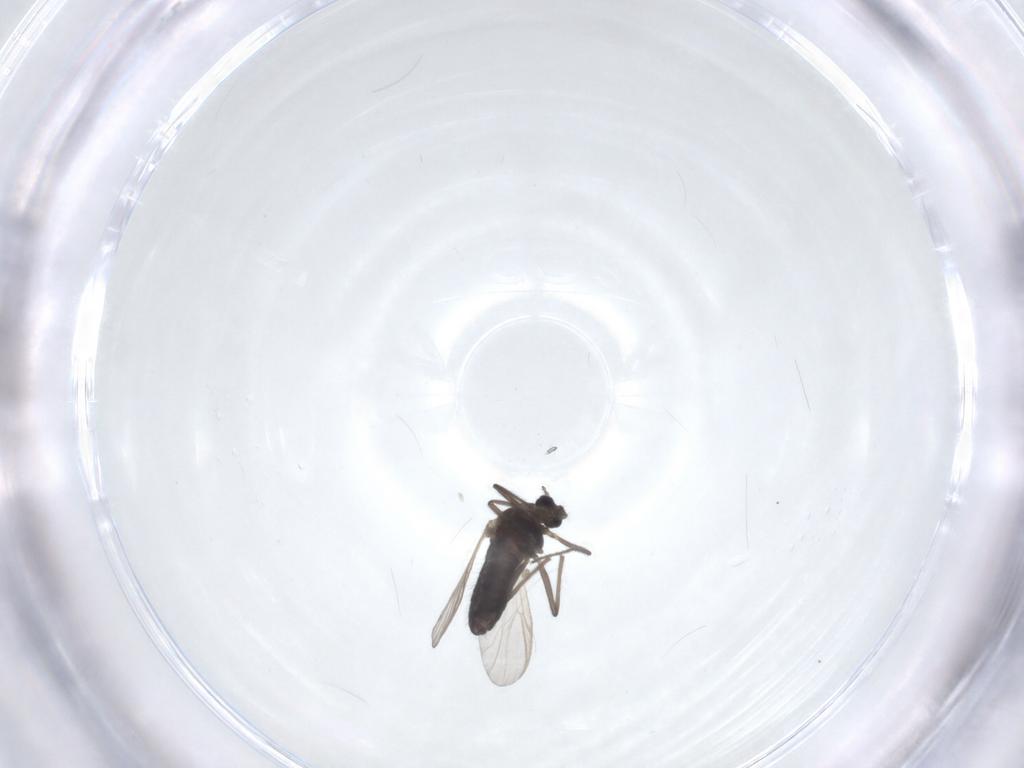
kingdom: Animalia
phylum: Arthropoda
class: Insecta
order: Diptera
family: Chironomidae
